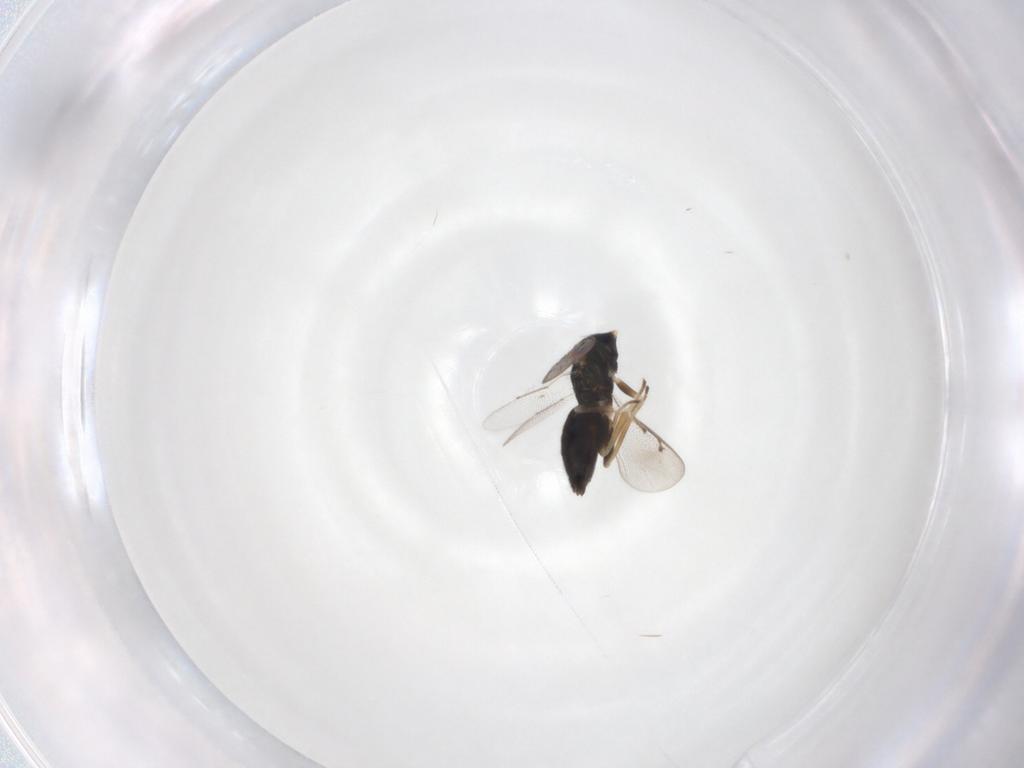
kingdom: Animalia
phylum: Arthropoda
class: Insecta
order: Hymenoptera
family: Eulophidae
